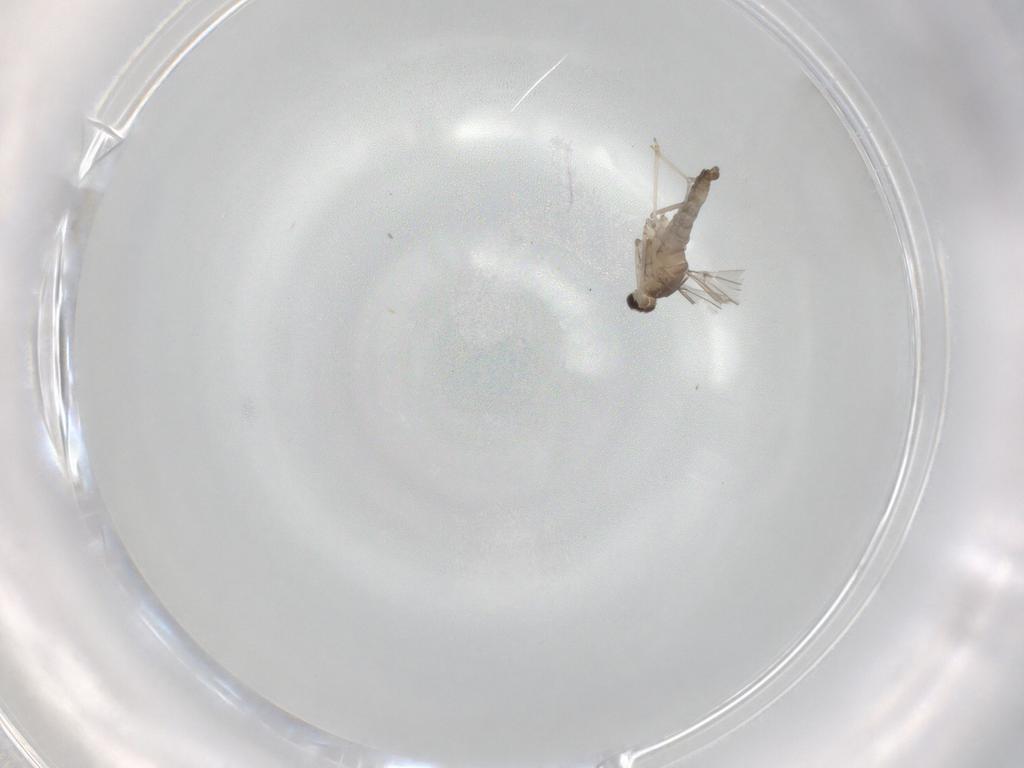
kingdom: Animalia
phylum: Arthropoda
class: Insecta
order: Diptera
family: Cecidomyiidae
